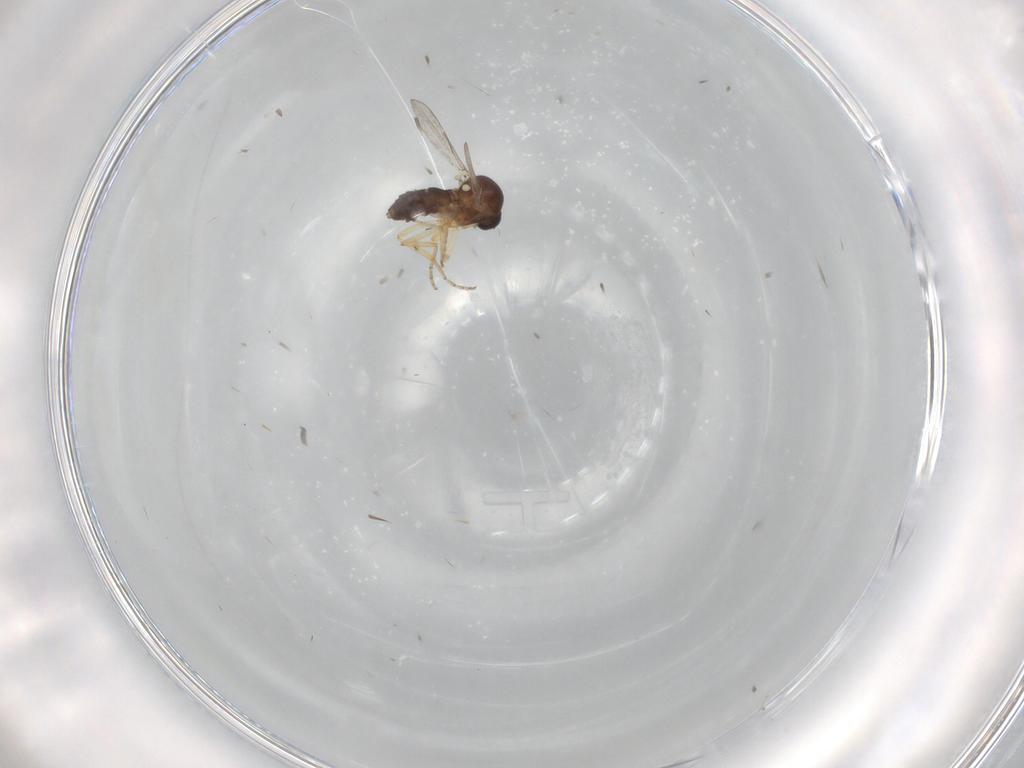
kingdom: Animalia
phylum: Arthropoda
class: Insecta
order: Diptera
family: Ceratopogonidae
